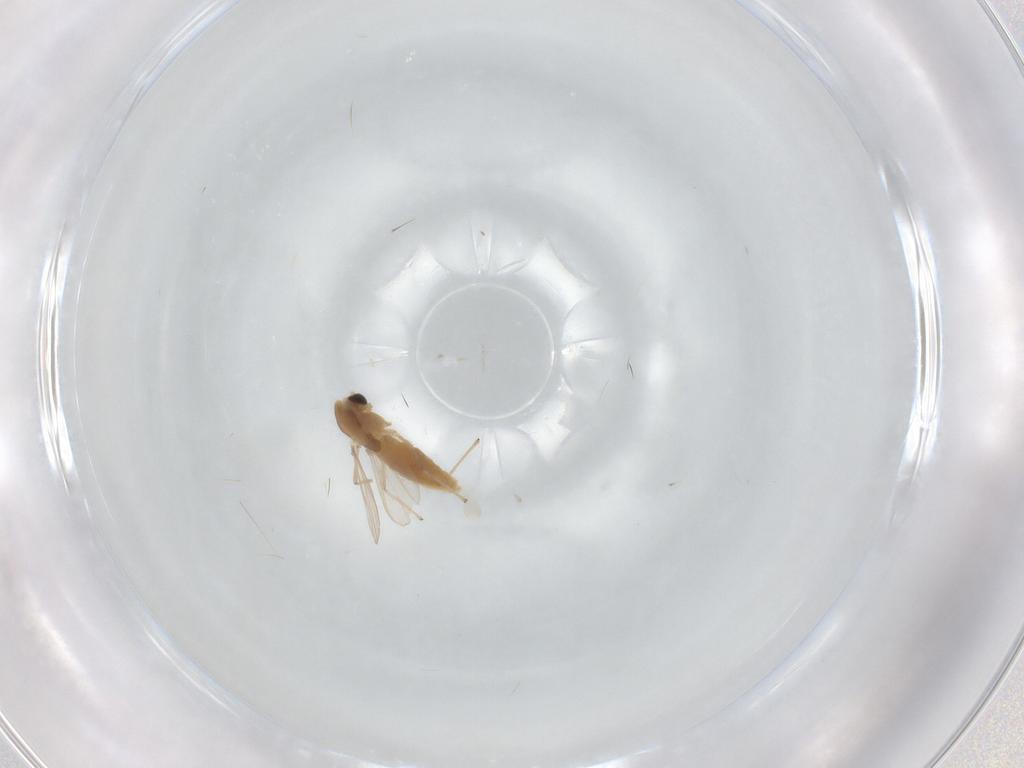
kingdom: Animalia
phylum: Arthropoda
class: Insecta
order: Diptera
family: Chironomidae
